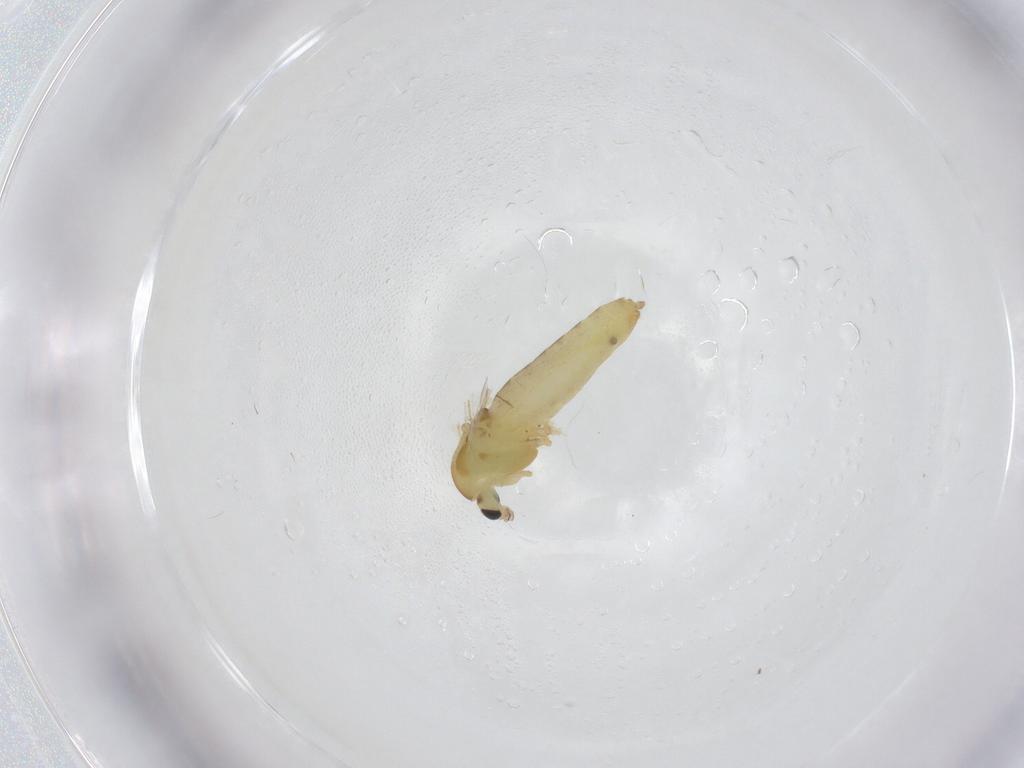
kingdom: Animalia
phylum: Arthropoda
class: Insecta
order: Diptera
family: Chironomidae
